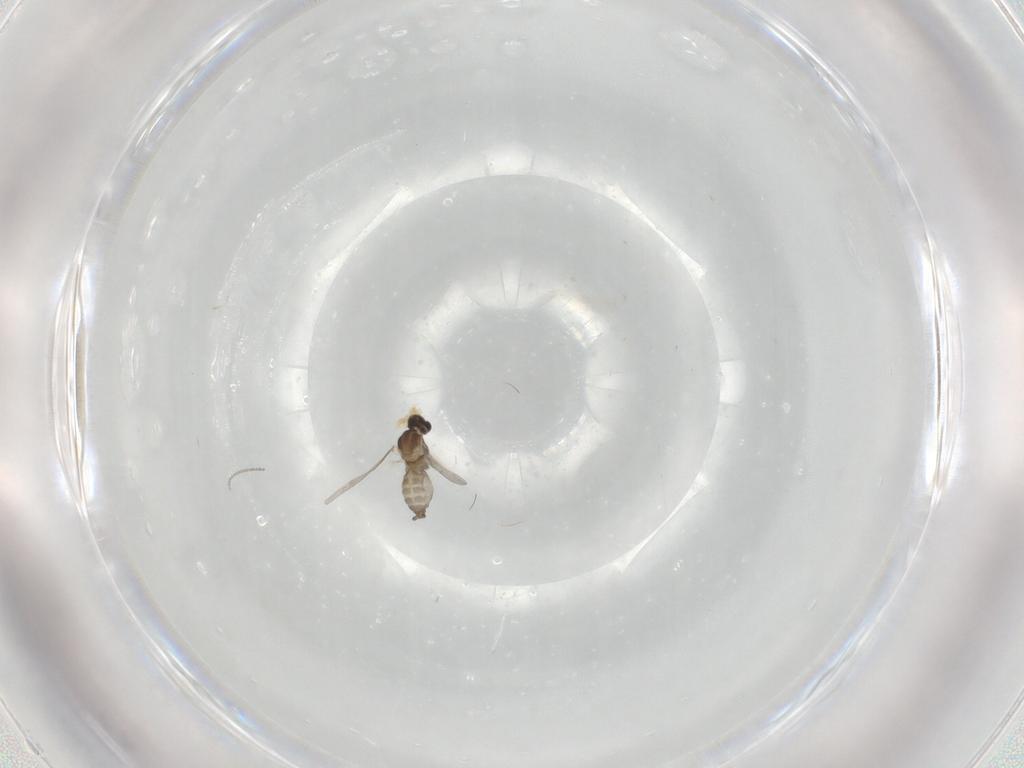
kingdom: Animalia
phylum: Arthropoda
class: Insecta
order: Diptera
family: Cecidomyiidae
